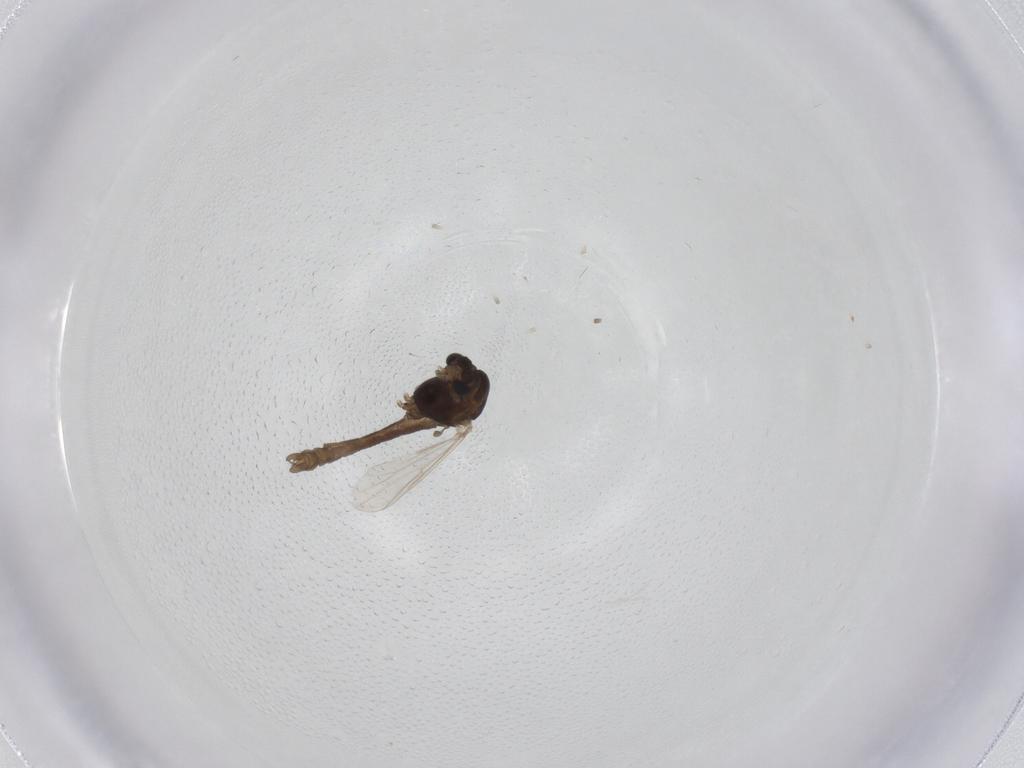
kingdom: Animalia
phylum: Arthropoda
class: Insecta
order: Diptera
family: Chironomidae
